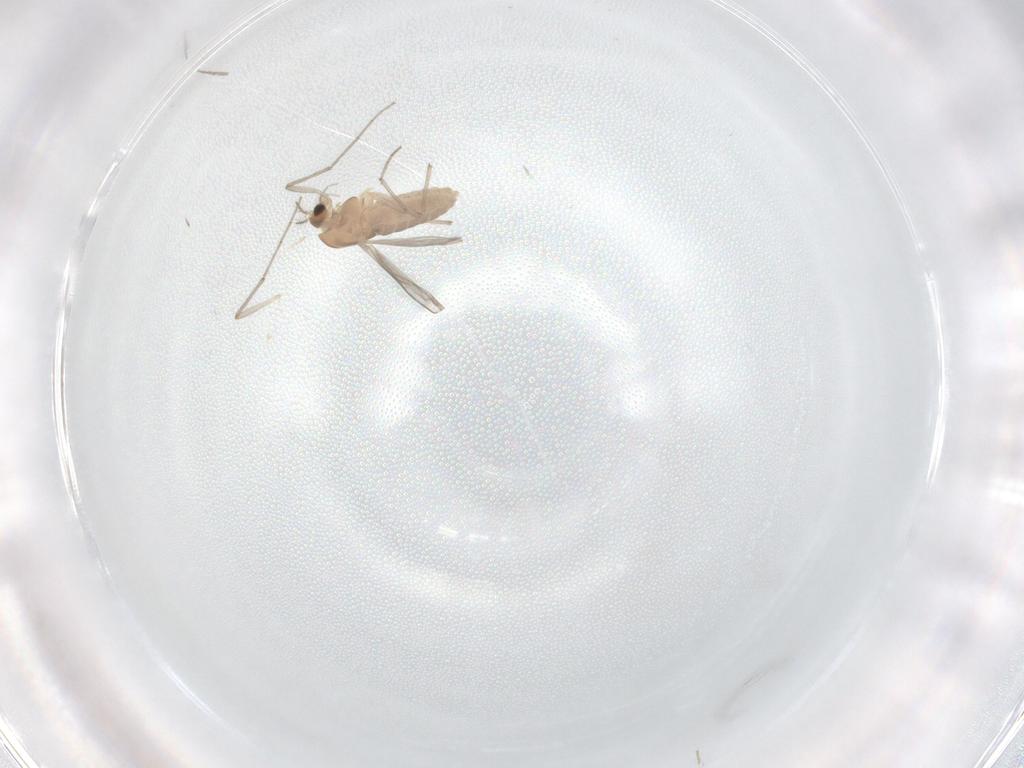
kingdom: Animalia
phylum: Arthropoda
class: Insecta
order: Diptera
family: Chironomidae
